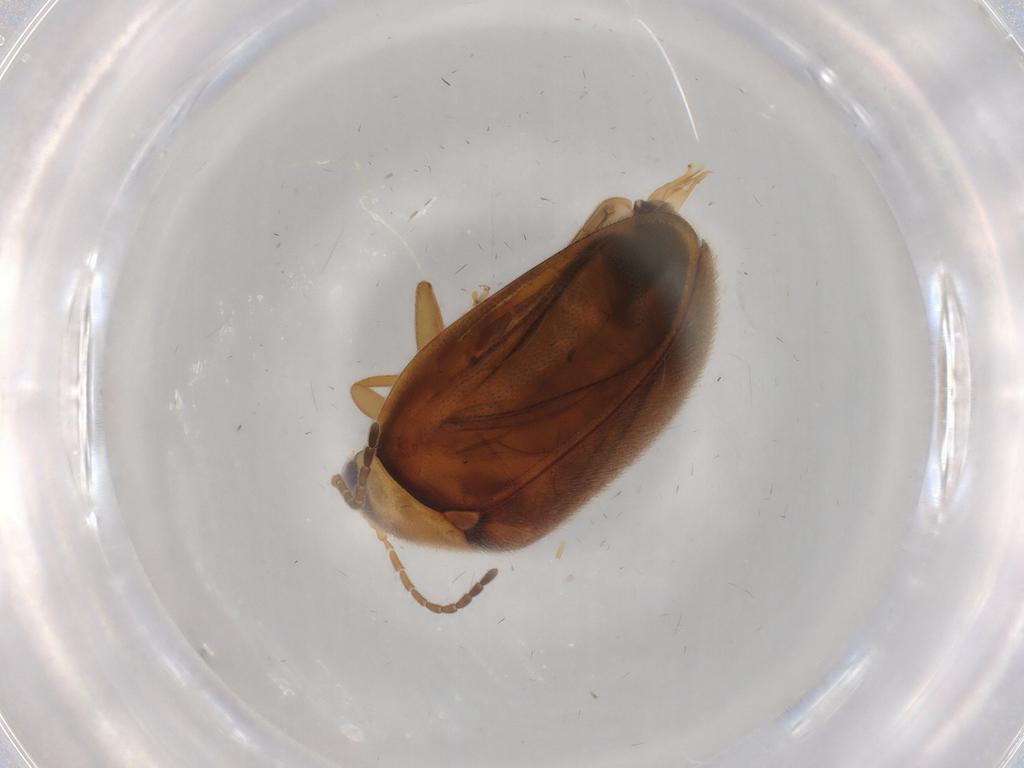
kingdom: Animalia
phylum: Arthropoda
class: Insecta
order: Coleoptera
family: Scirtidae
